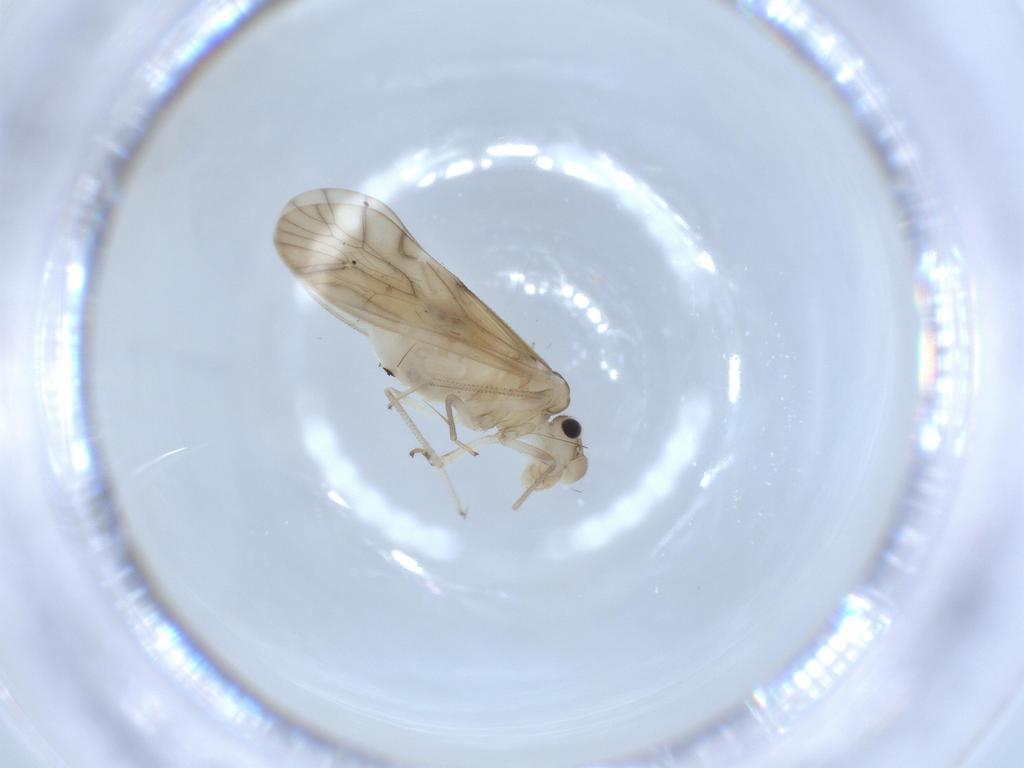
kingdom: Animalia
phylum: Arthropoda
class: Insecta
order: Psocodea
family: Caeciliusidae
